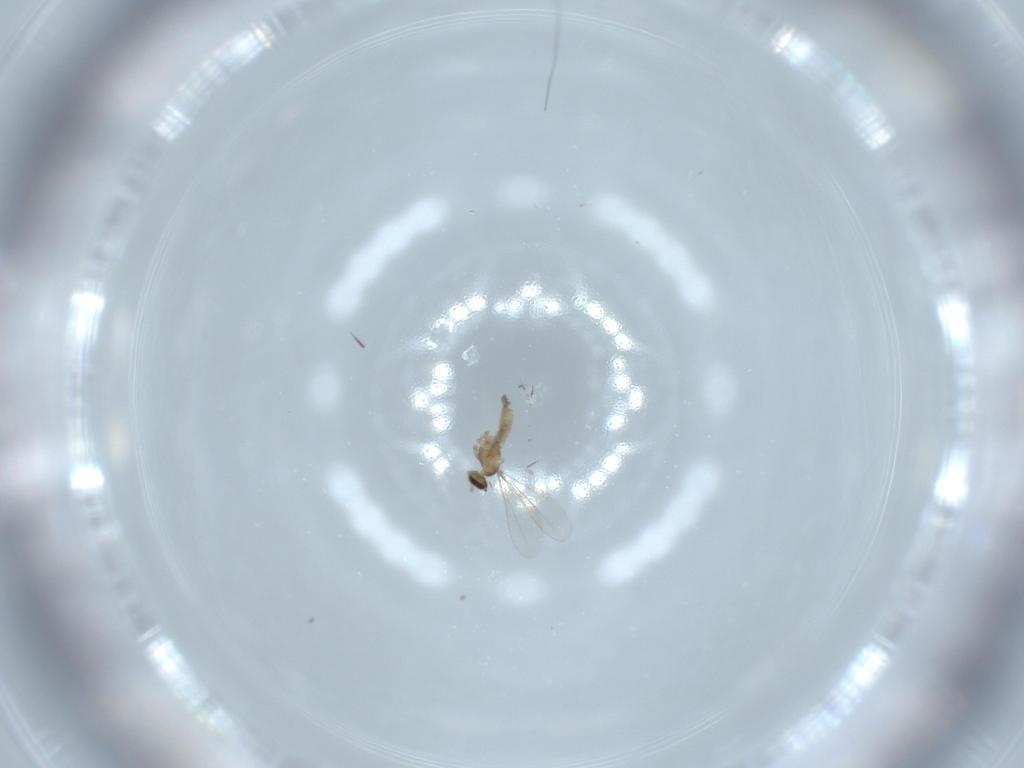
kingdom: Animalia
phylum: Arthropoda
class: Insecta
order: Diptera
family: Cecidomyiidae
